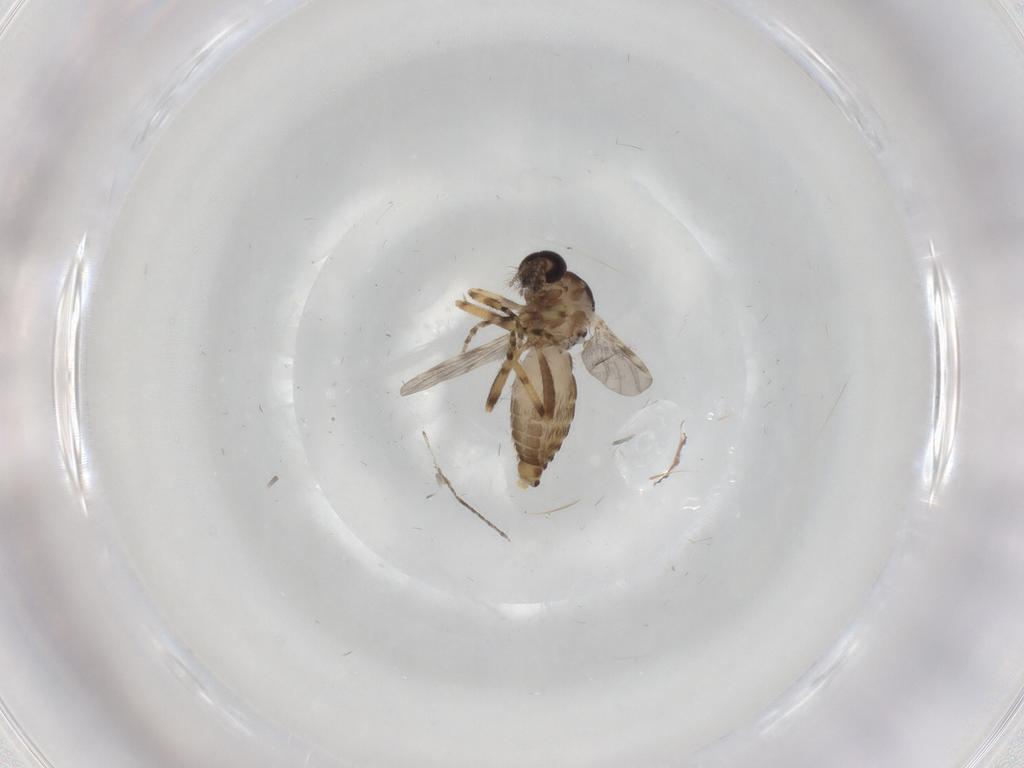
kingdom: Animalia
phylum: Arthropoda
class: Insecta
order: Diptera
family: Ceratopogonidae
